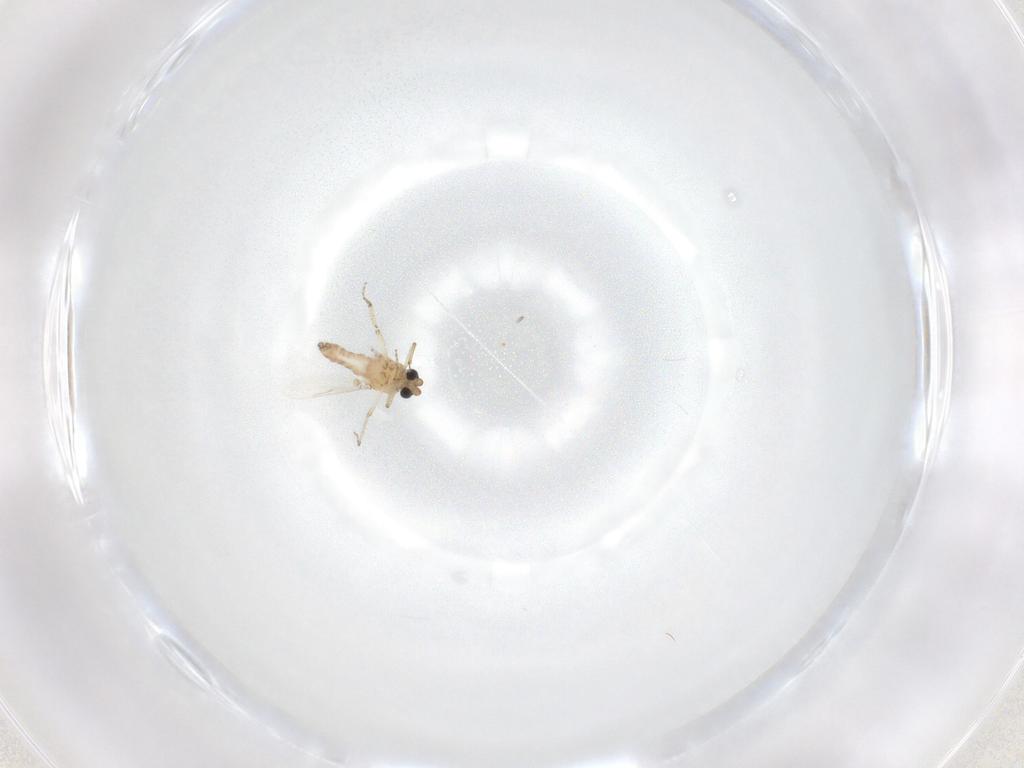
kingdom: Animalia
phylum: Arthropoda
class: Insecta
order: Diptera
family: Ceratopogonidae
